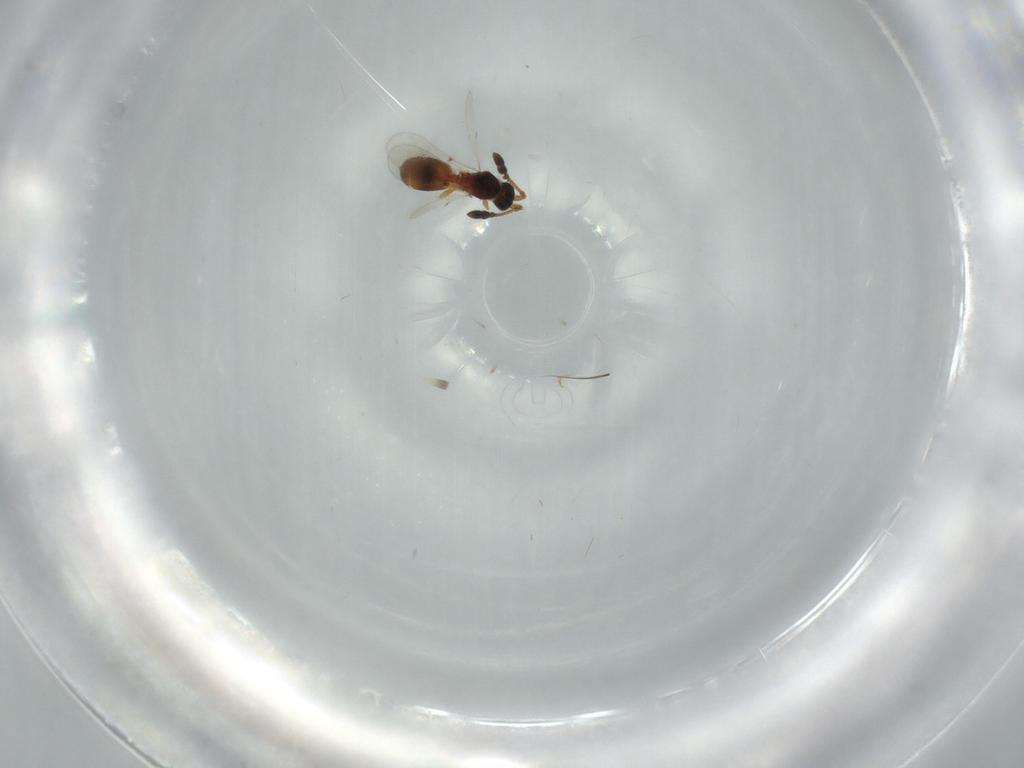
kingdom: Animalia
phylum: Arthropoda
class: Insecta
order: Hymenoptera
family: Diapriidae
